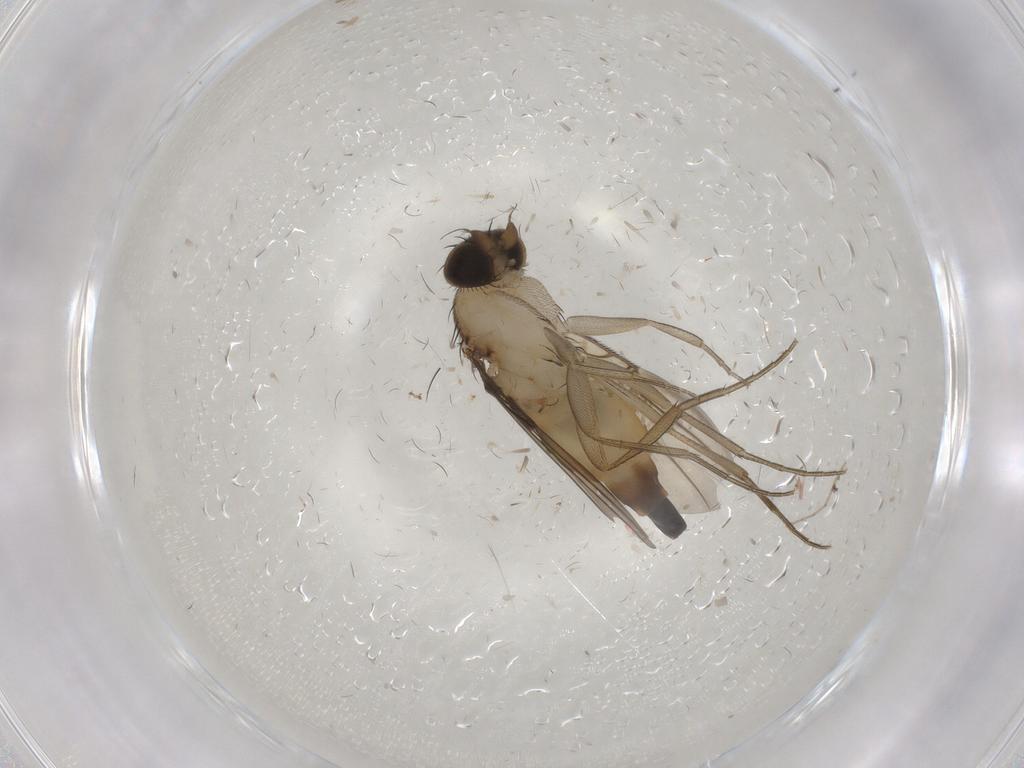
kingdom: Animalia
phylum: Arthropoda
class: Insecta
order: Diptera
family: Phoridae
